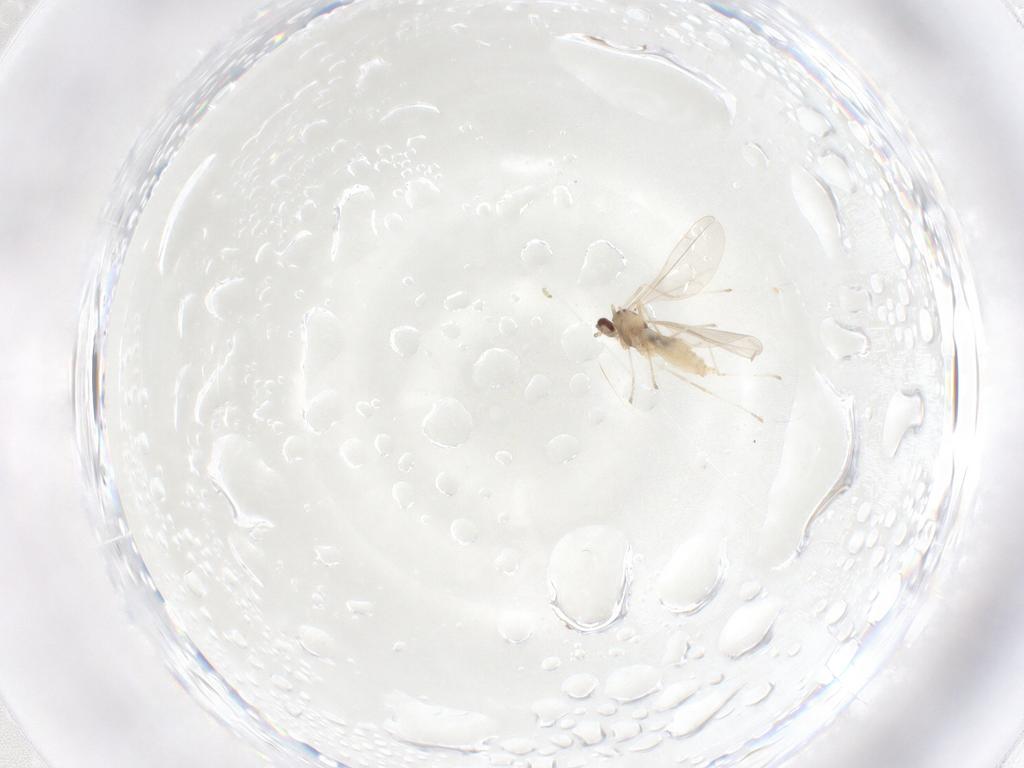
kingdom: Animalia
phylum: Arthropoda
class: Insecta
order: Diptera
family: Cecidomyiidae
